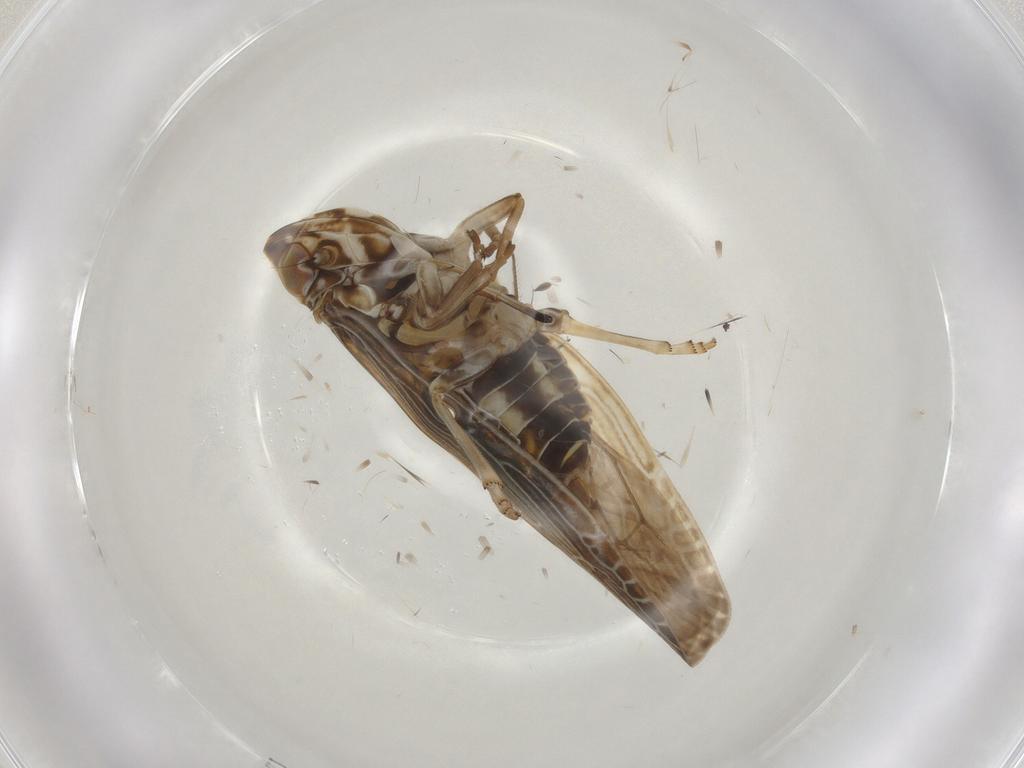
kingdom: Animalia
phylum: Arthropoda
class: Insecta
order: Hemiptera
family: Achilidae
